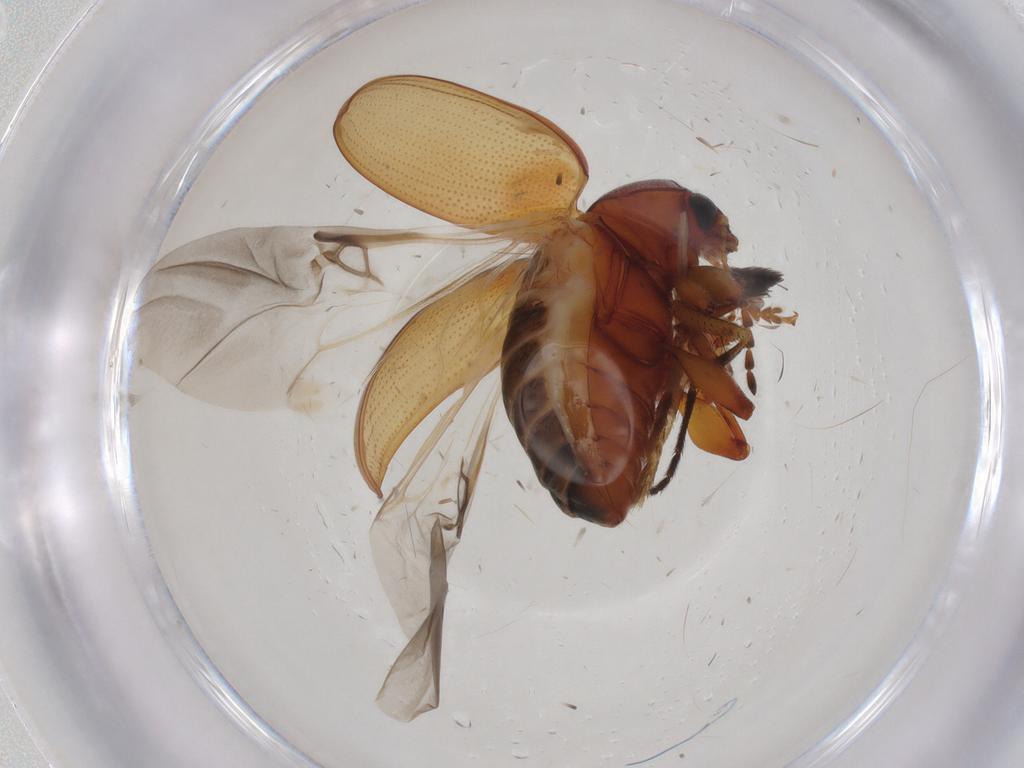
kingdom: Animalia
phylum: Arthropoda
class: Insecta
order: Coleoptera
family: Chrysomelidae
